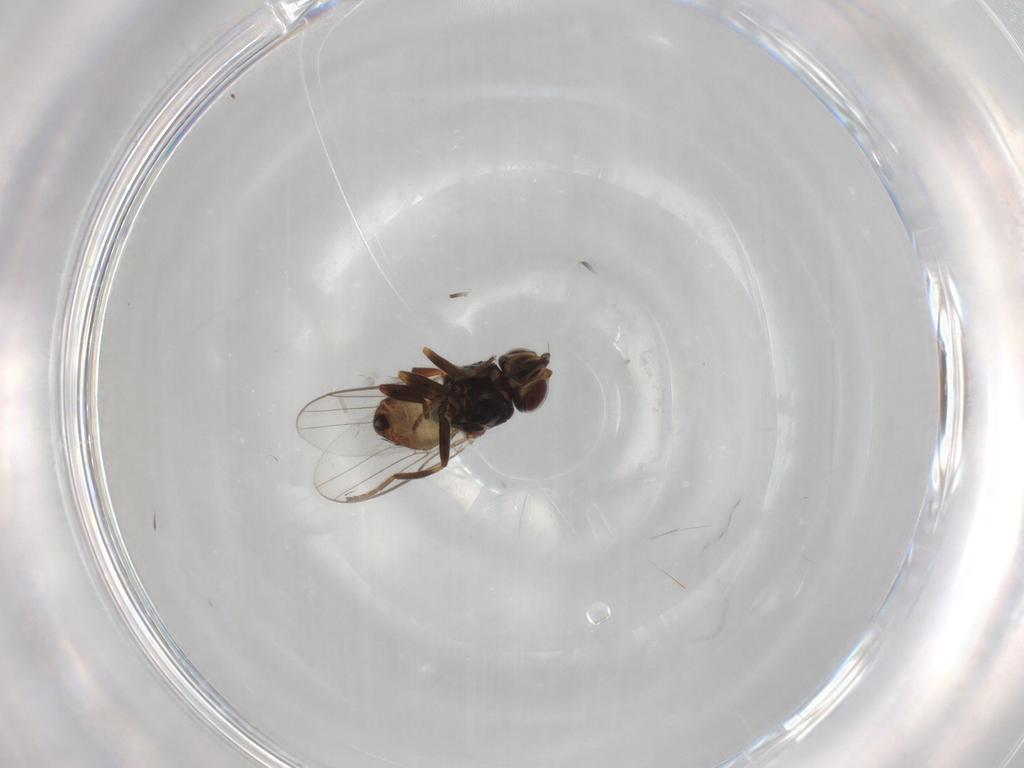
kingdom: Animalia
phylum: Arthropoda
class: Insecta
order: Diptera
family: Chloropidae
